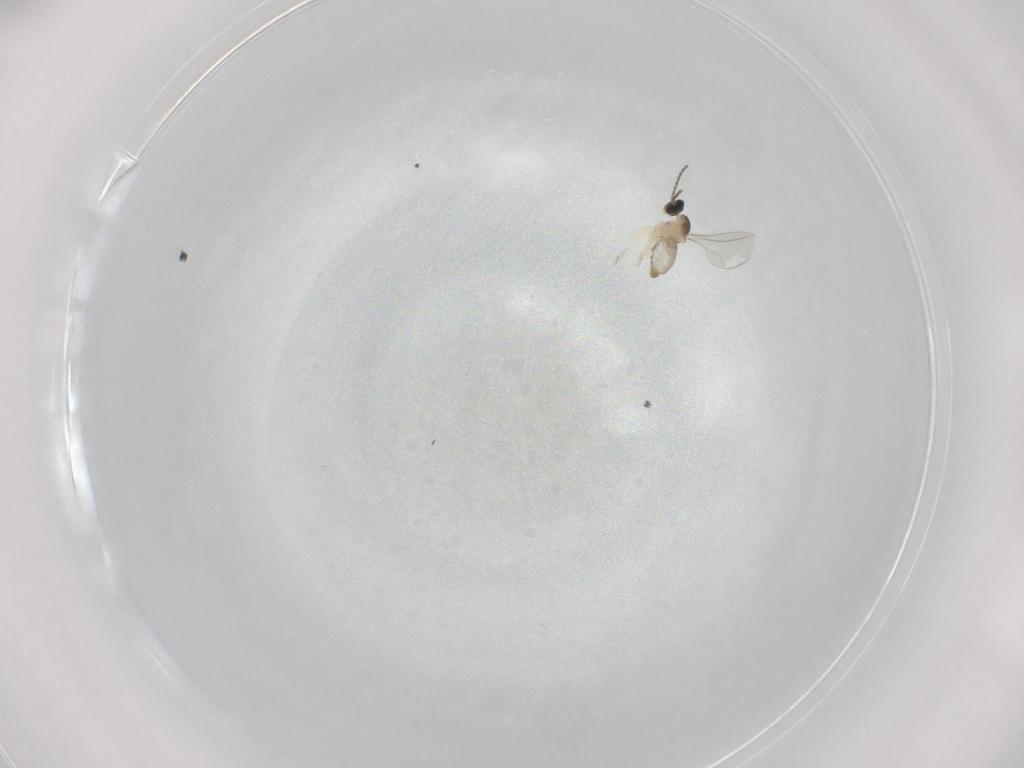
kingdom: Animalia
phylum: Arthropoda
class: Insecta
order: Diptera
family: Cecidomyiidae
